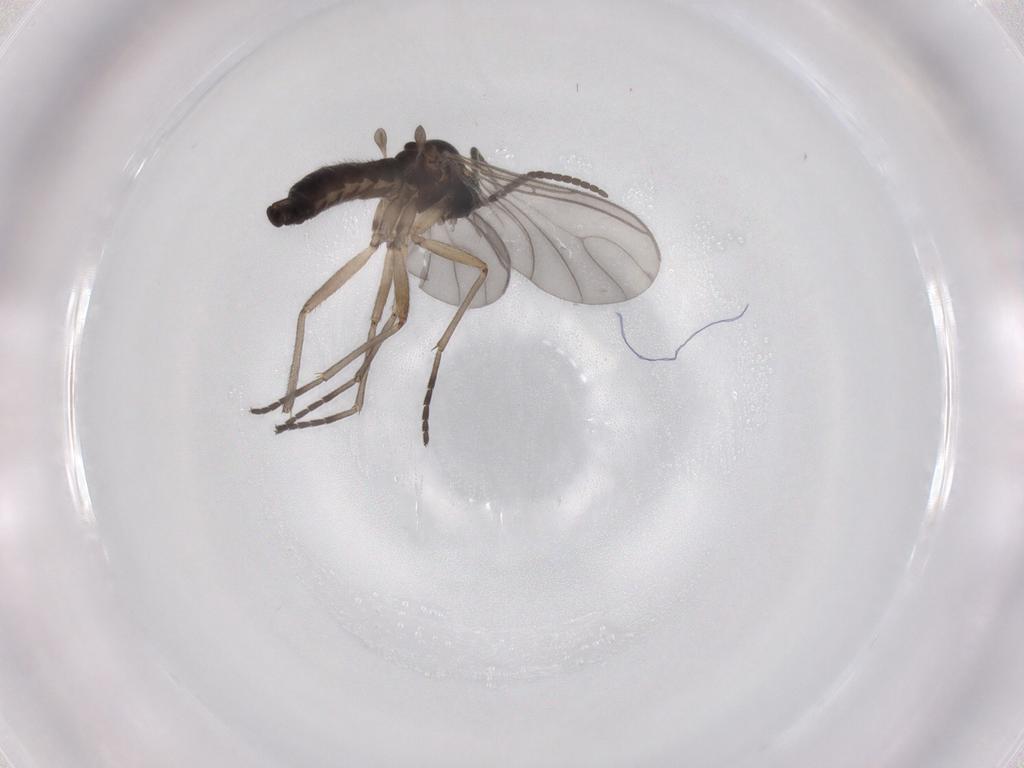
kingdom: Animalia
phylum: Arthropoda
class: Insecta
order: Diptera
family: Sciaridae
